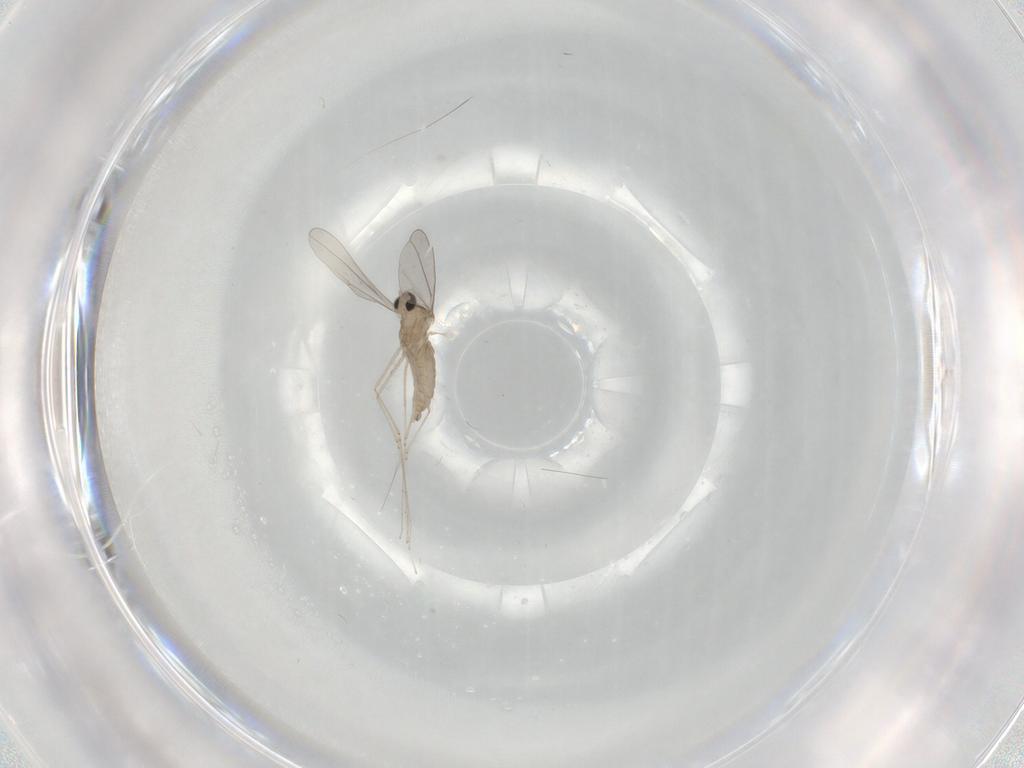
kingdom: Animalia
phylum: Arthropoda
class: Insecta
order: Diptera
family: Cecidomyiidae
